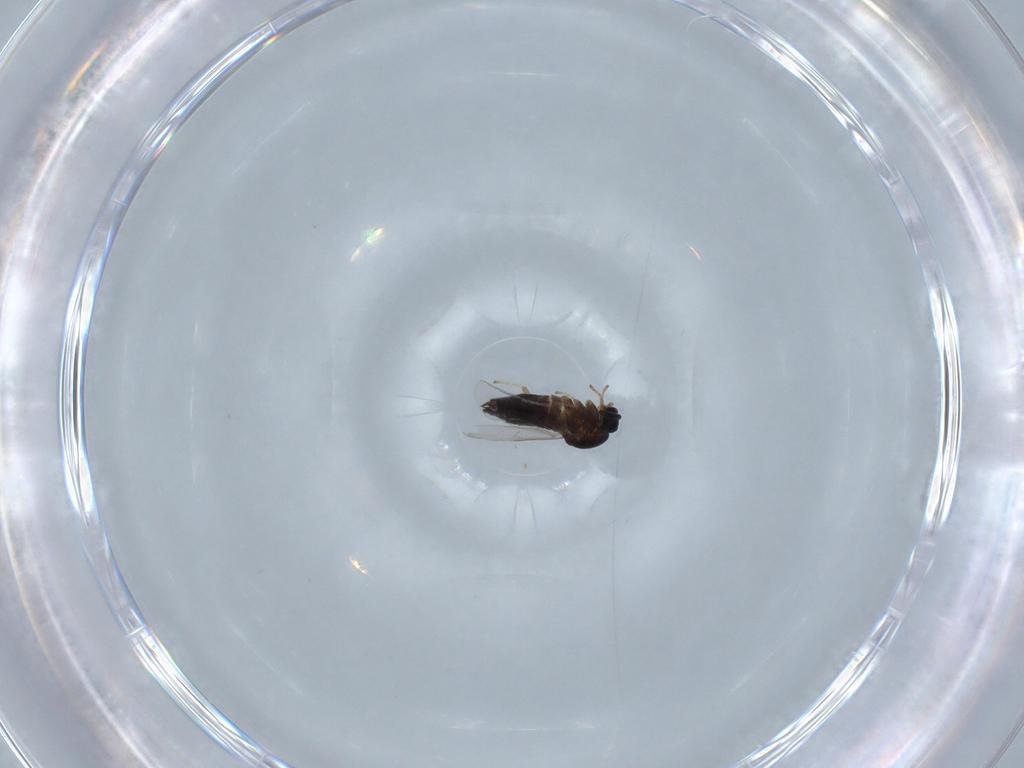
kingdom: Animalia
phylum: Arthropoda
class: Insecta
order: Diptera
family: Scatopsidae
